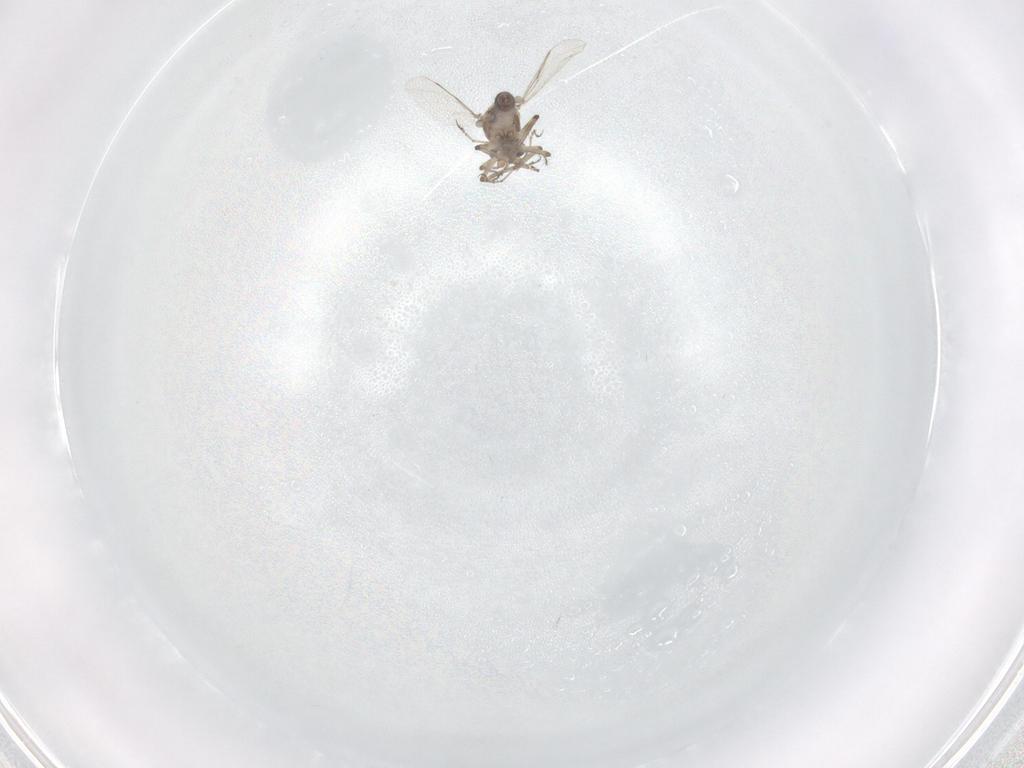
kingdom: Animalia
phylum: Arthropoda
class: Insecta
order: Diptera
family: Ceratopogonidae
